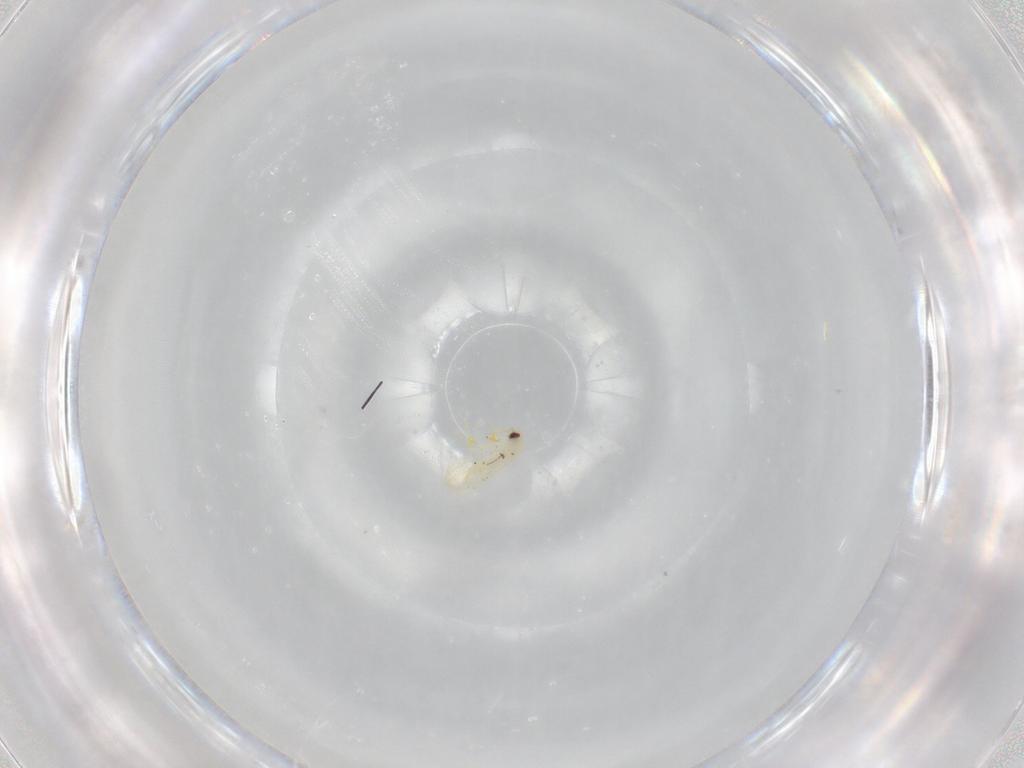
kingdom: Animalia
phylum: Arthropoda
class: Insecta
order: Hemiptera
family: Aleyrodidae
